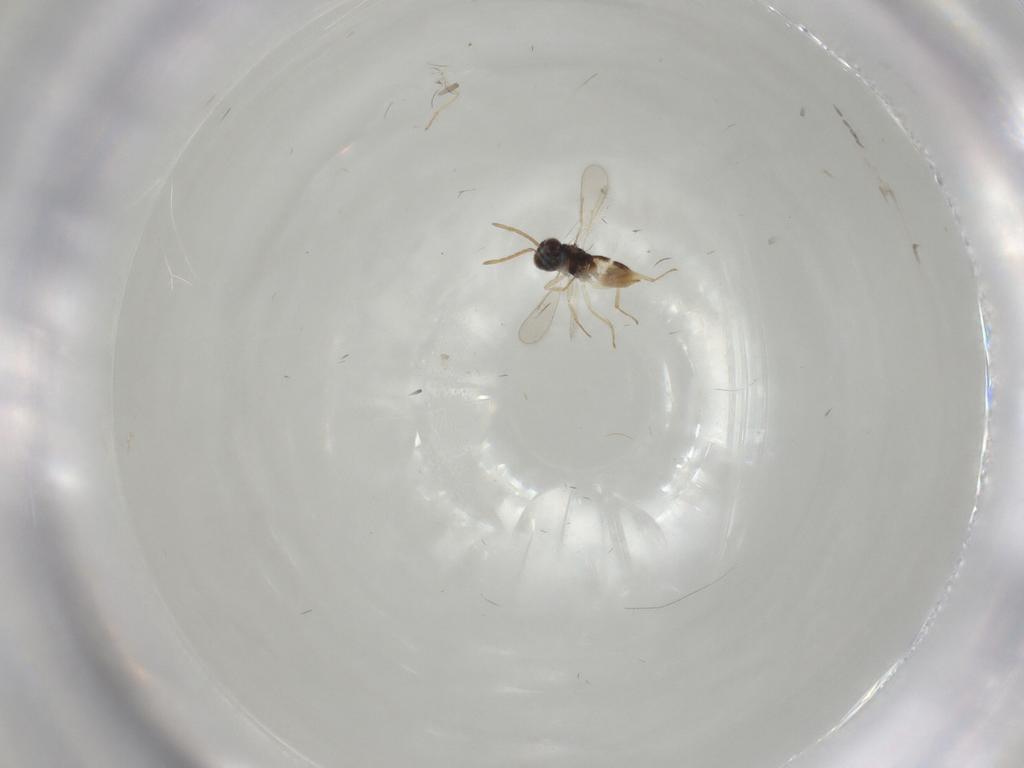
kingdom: Animalia
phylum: Arthropoda
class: Insecta
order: Hymenoptera
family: Aphelinidae
